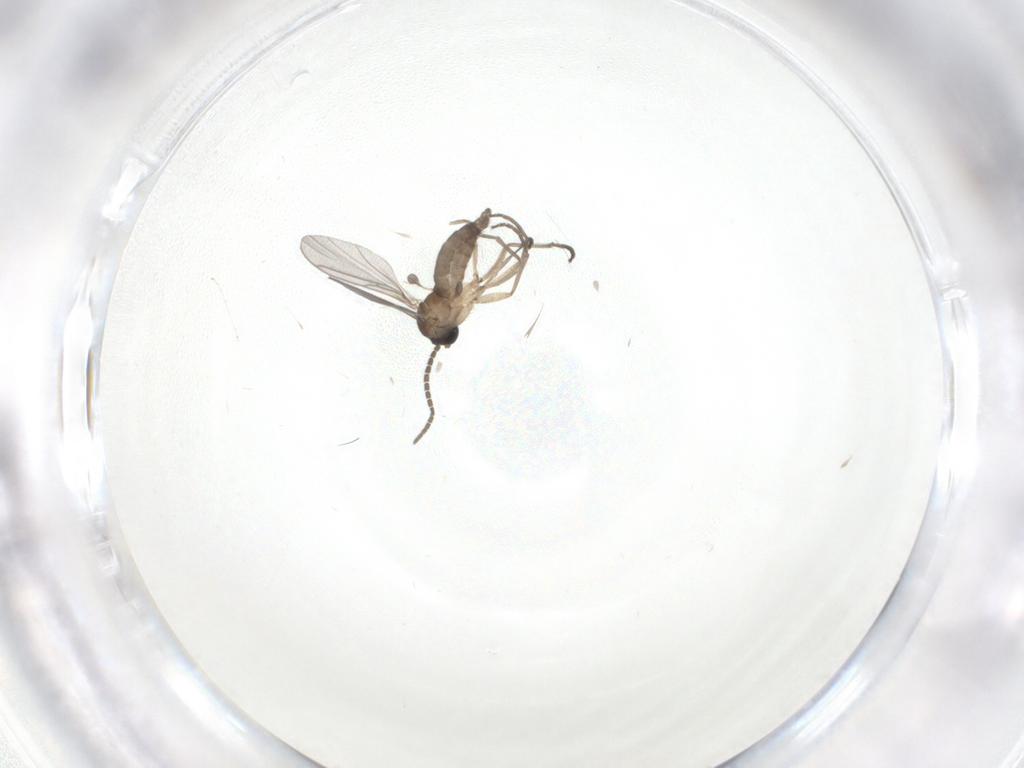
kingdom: Animalia
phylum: Arthropoda
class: Insecta
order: Diptera
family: Sciaridae
